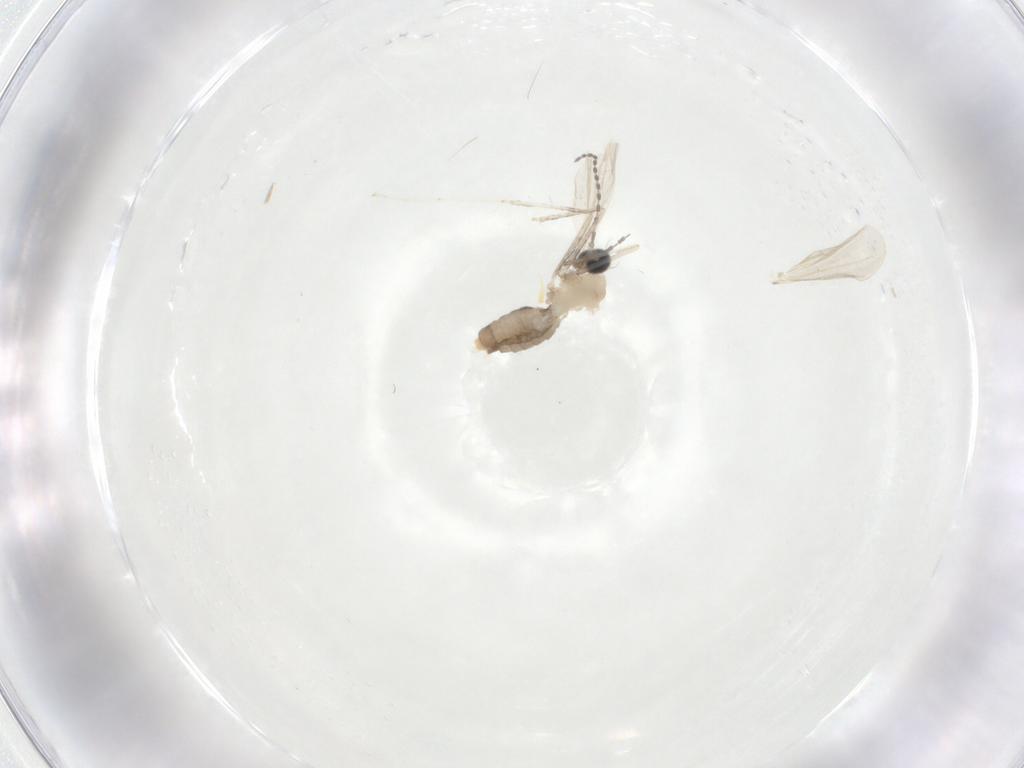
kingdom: Animalia
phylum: Arthropoda
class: Insecta
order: Diptera
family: Cecidomyiidae
